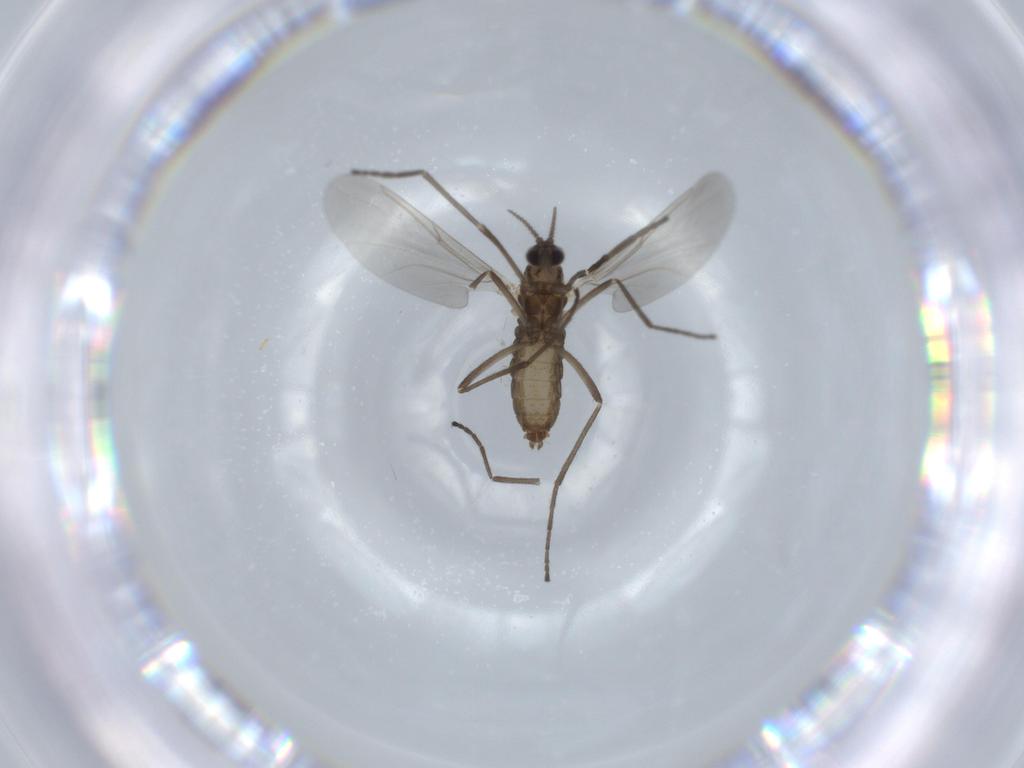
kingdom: Animalia
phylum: Arthropoda
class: Insecta
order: Diptera
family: Cecidomyiidae
